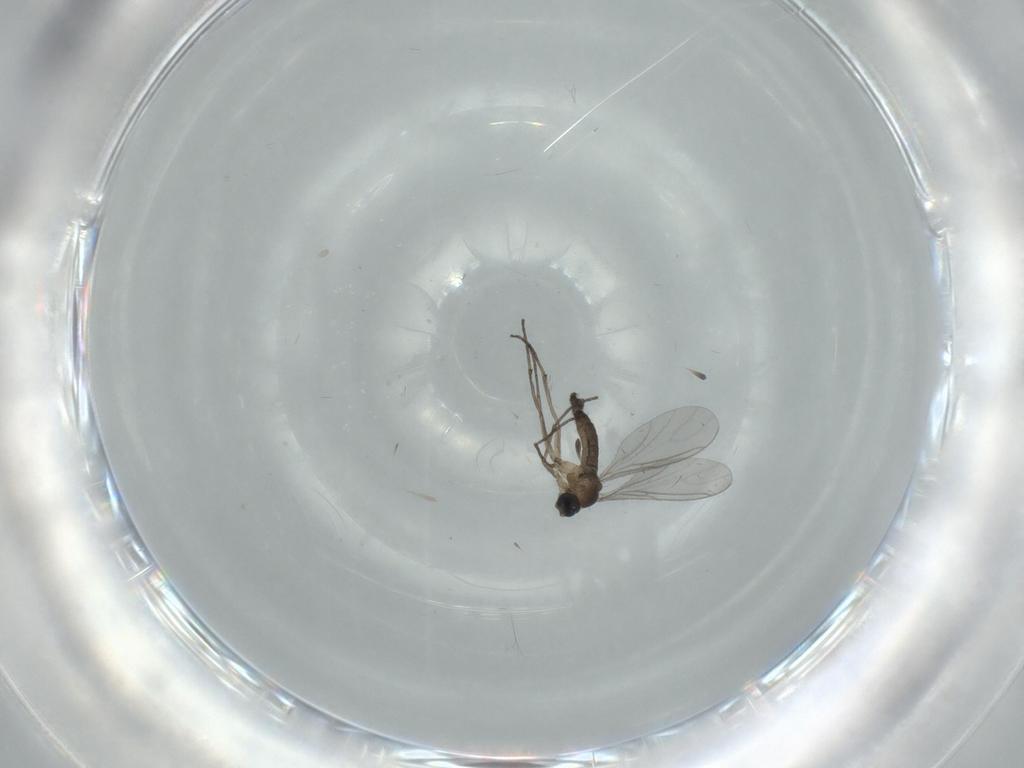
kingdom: Animalia
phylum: Arthropoda
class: Insecta
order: Diptera
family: Sciaridae
